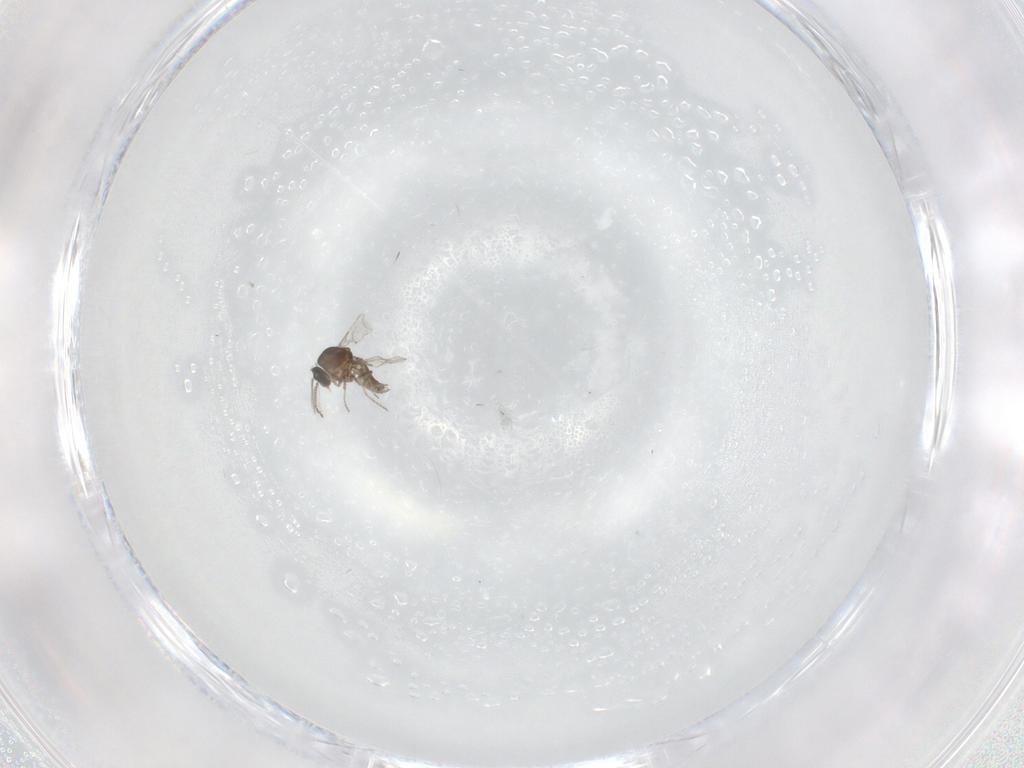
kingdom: Animalia
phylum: Arthropoda
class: Insecta
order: Diptera
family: Ceratopogonidae
